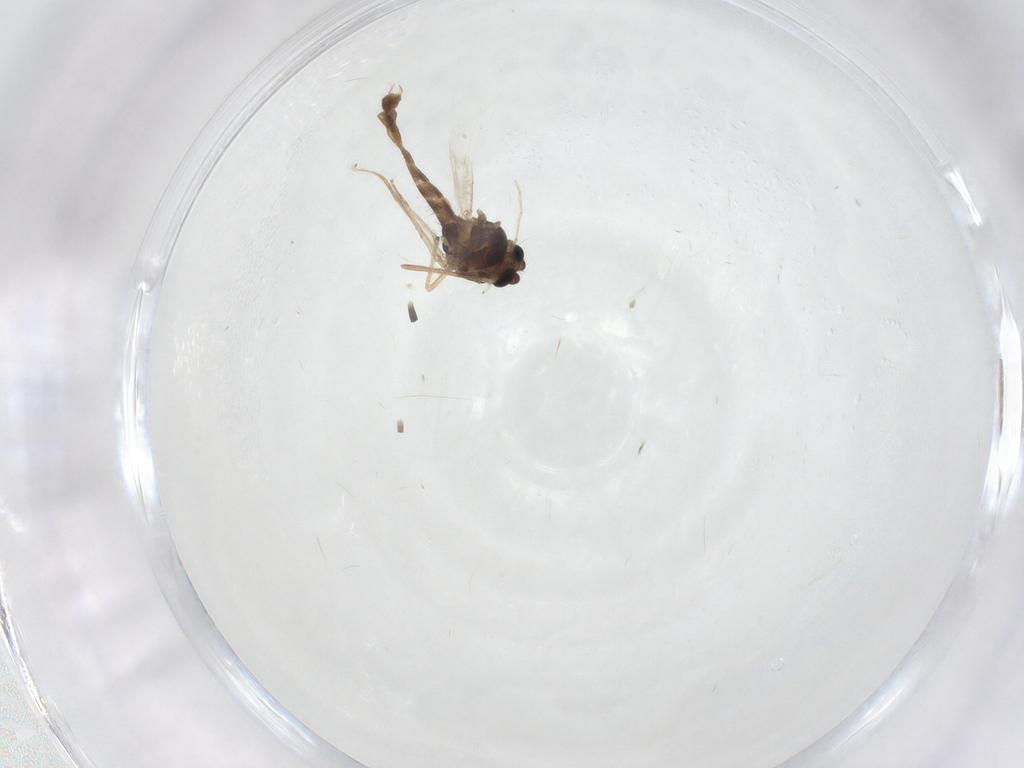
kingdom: Animalia
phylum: Arthropoda
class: Insecta
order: Diptera
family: Chironomidae
